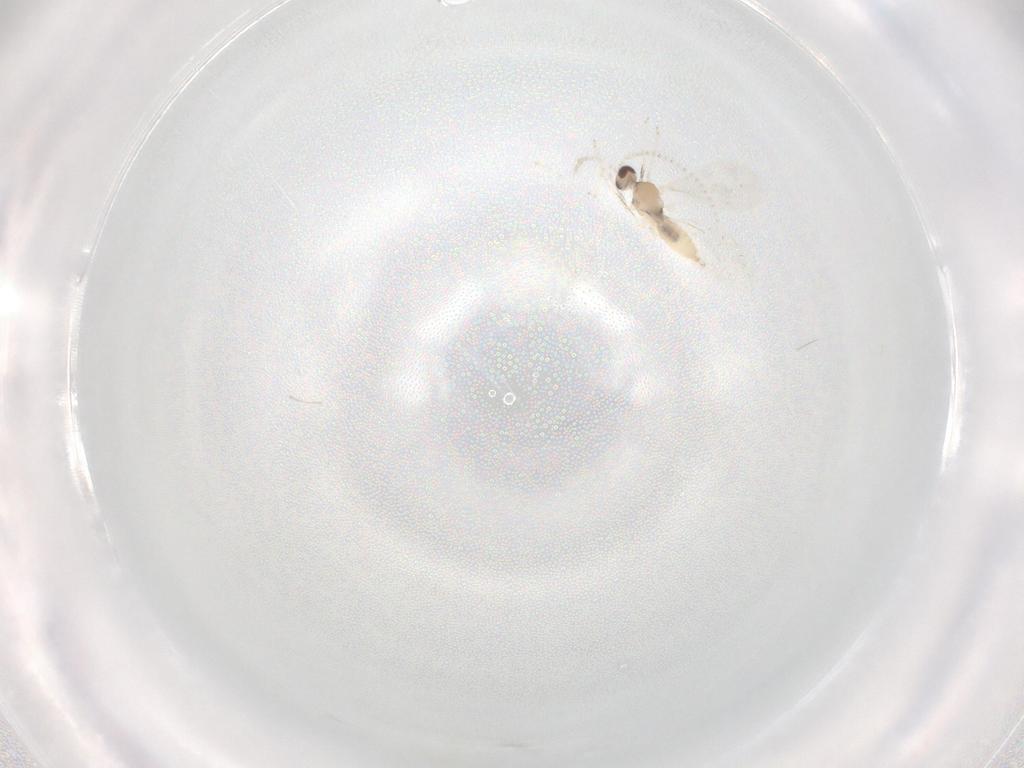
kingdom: Animalia
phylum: Arthropoda
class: Insecta
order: Diptera
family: Cecidomyiidae
